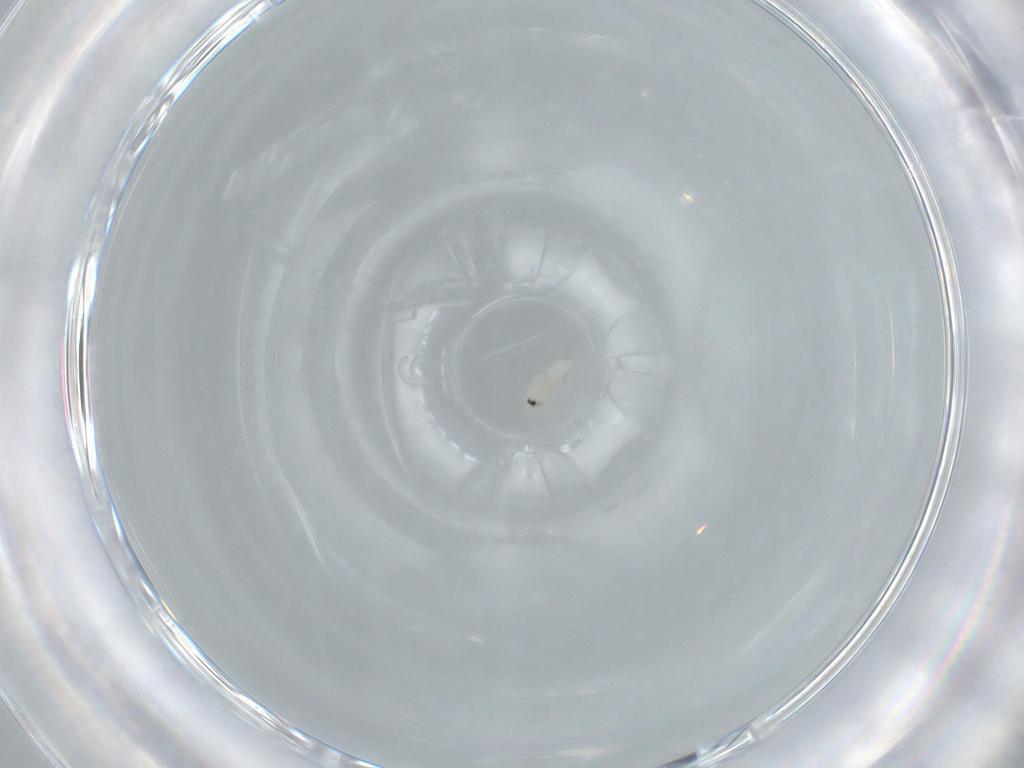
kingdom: Animalia
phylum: Arthropoda
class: Insecta
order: Hemiptera
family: Aleyrodidae
